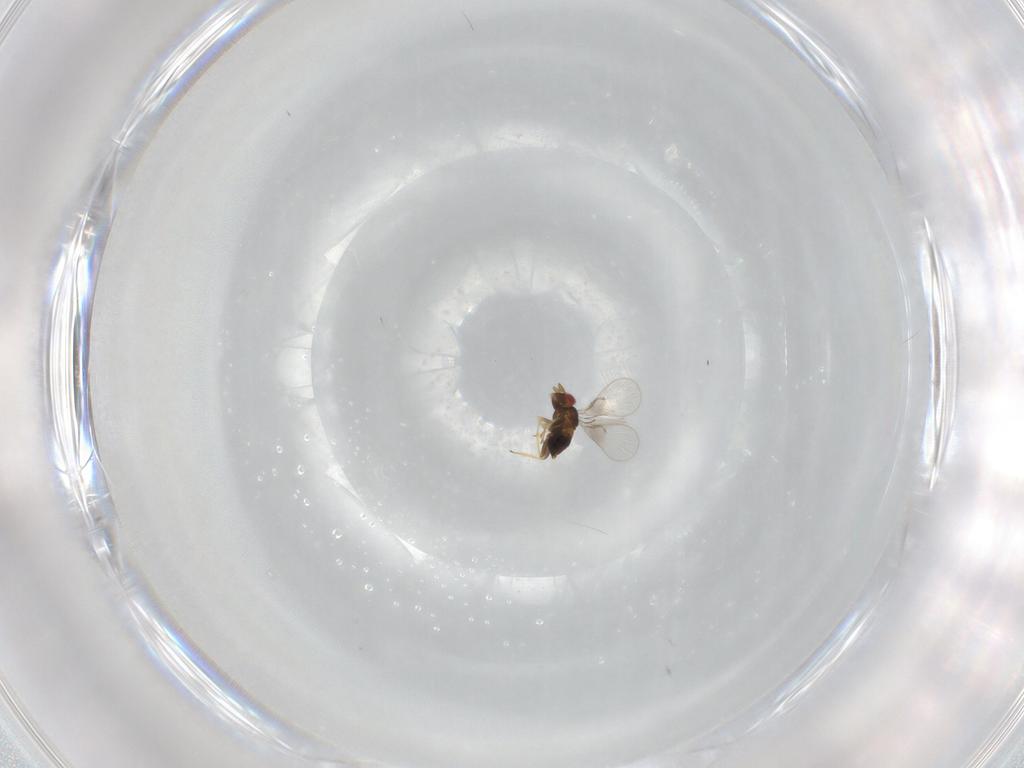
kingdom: Animalia
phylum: Arthropoda
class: Insecta
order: Hymenoptera
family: Trichogrammatidae
